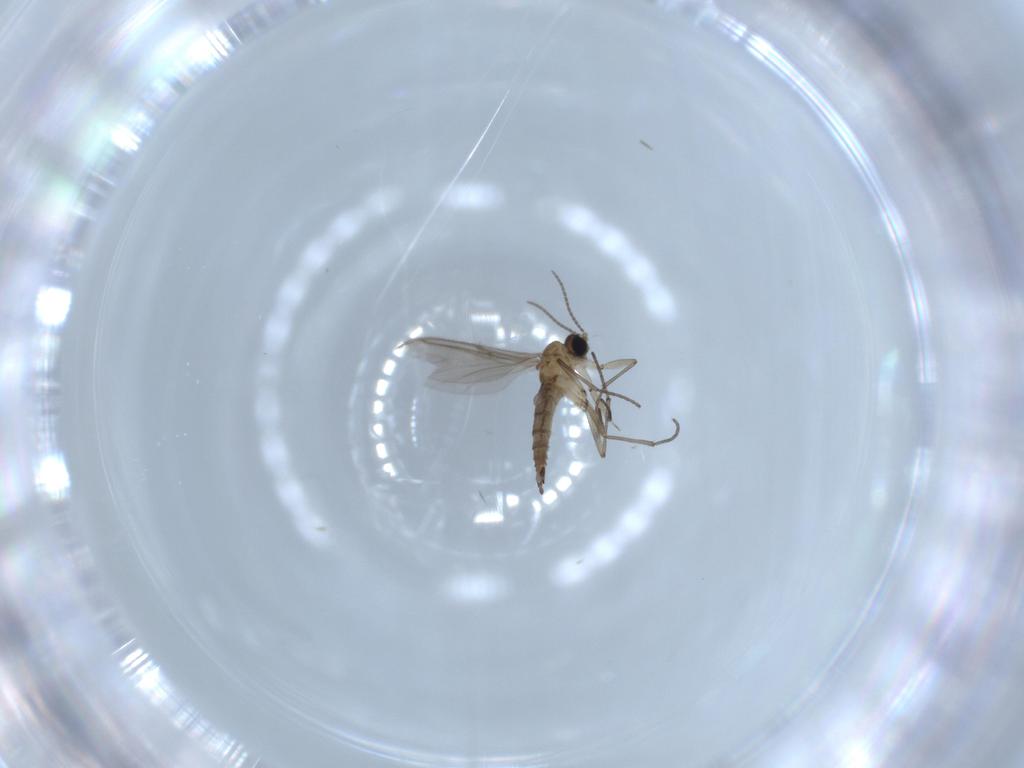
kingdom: Animalia
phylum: Arthropoda
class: Insecta
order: Diptera
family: Sciaridae
